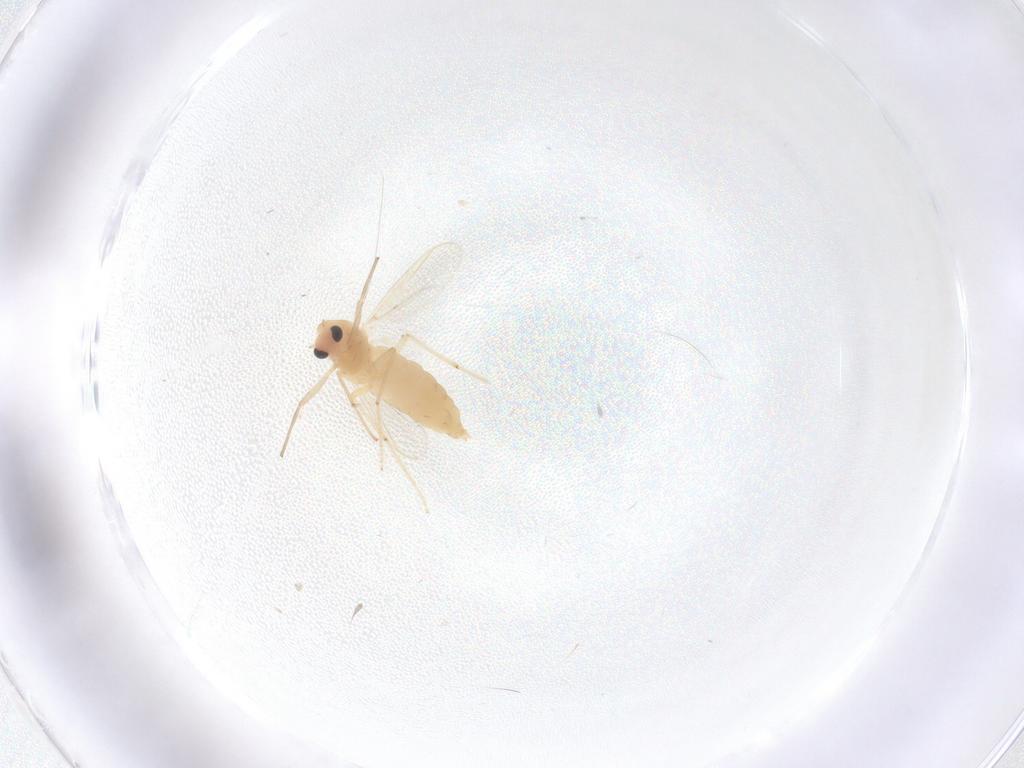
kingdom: Animalia
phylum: Arthropoda
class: Insecta
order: Diptera
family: Chironomidae
